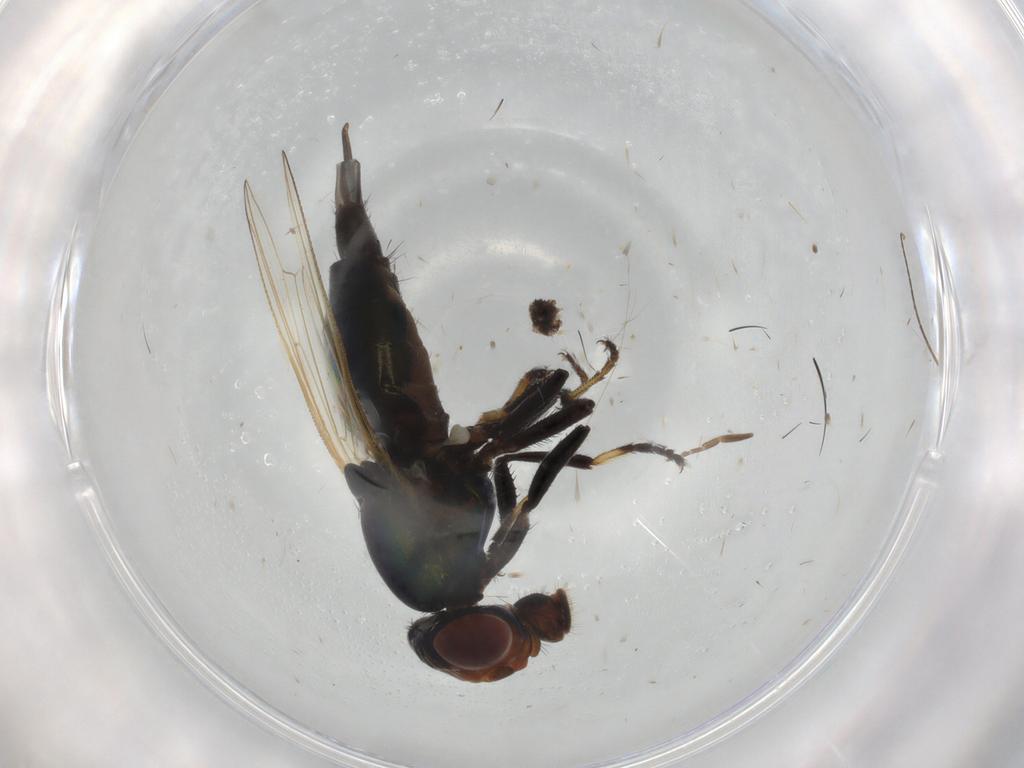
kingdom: Animalia
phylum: Arthropoda
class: Insecta
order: Diptera
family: Ulidiidae
